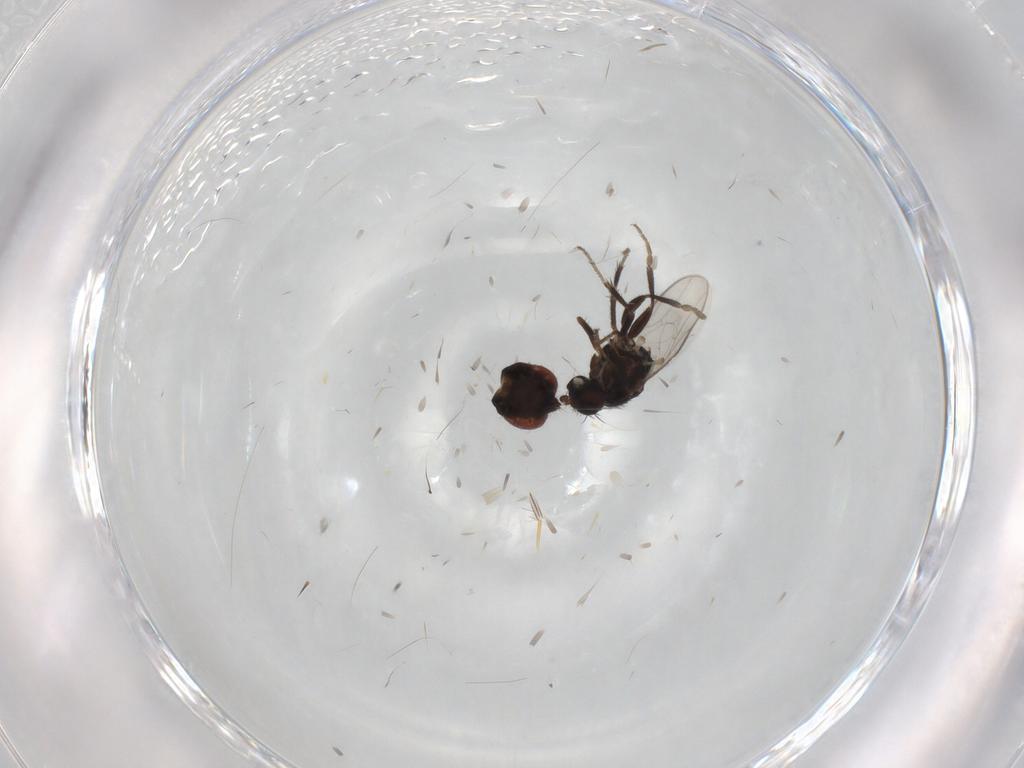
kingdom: Animalia
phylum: Arthropoda
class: Insecta
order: Diptera
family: Sphaeroceridae
